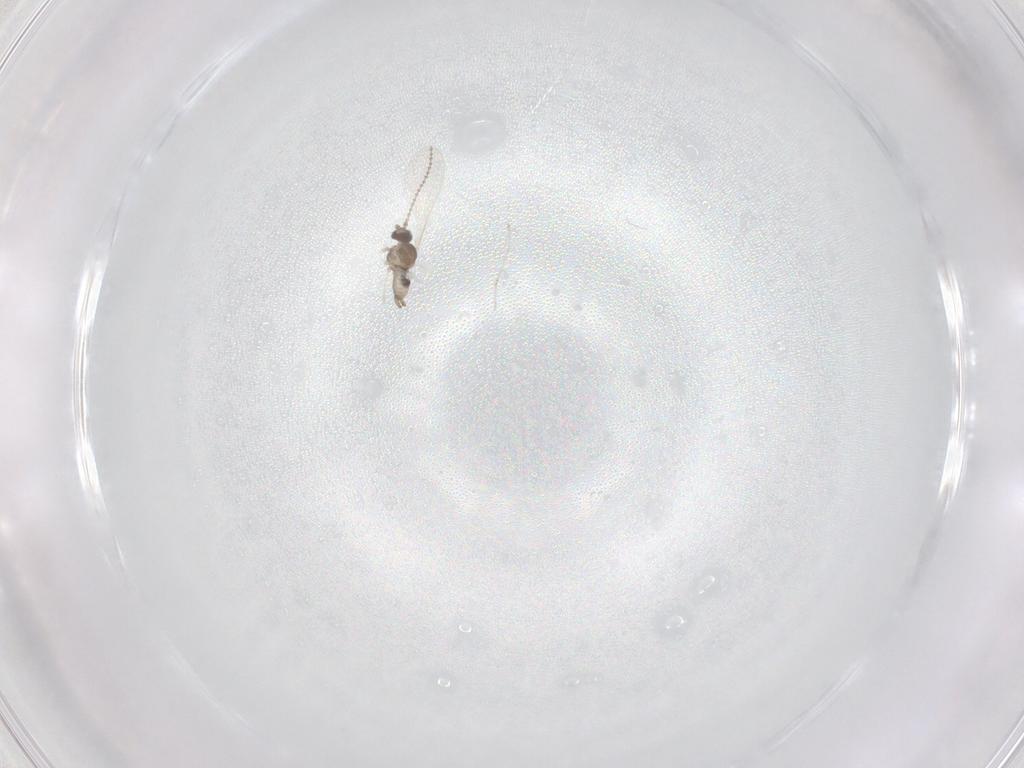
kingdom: Animalia
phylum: Arthropoda
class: Insecta
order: Diptera
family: Cecidomyiidae
